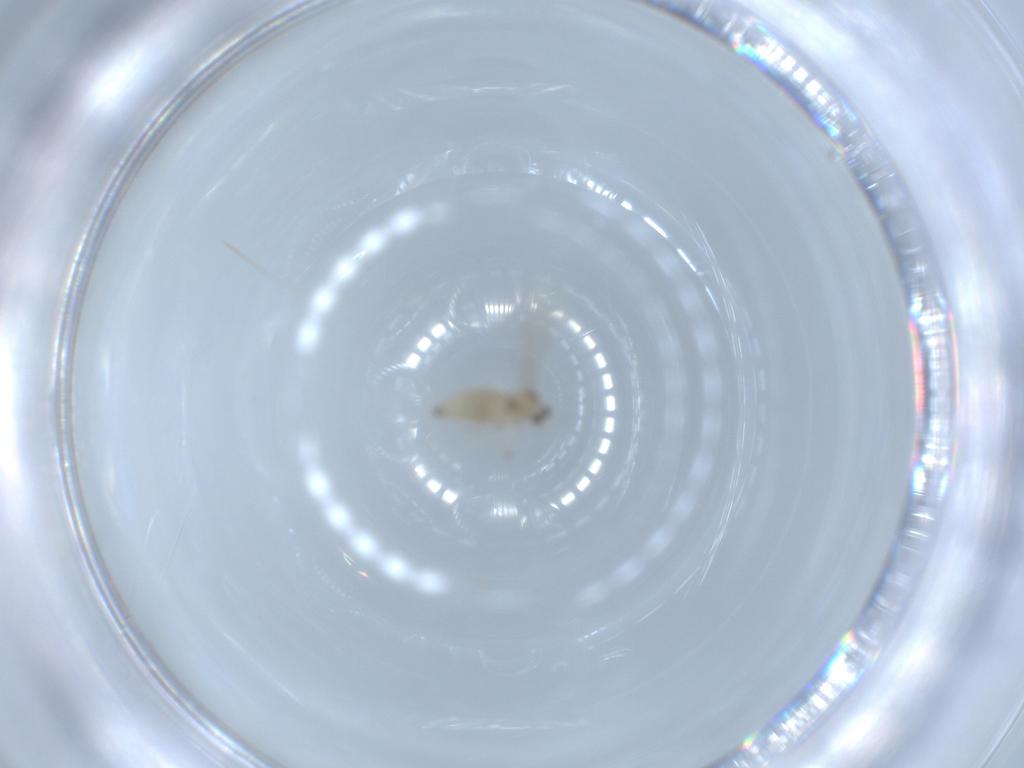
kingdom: Animalia
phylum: Arthropoda
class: Insecta
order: Diptera
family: Cecidomyiidae
